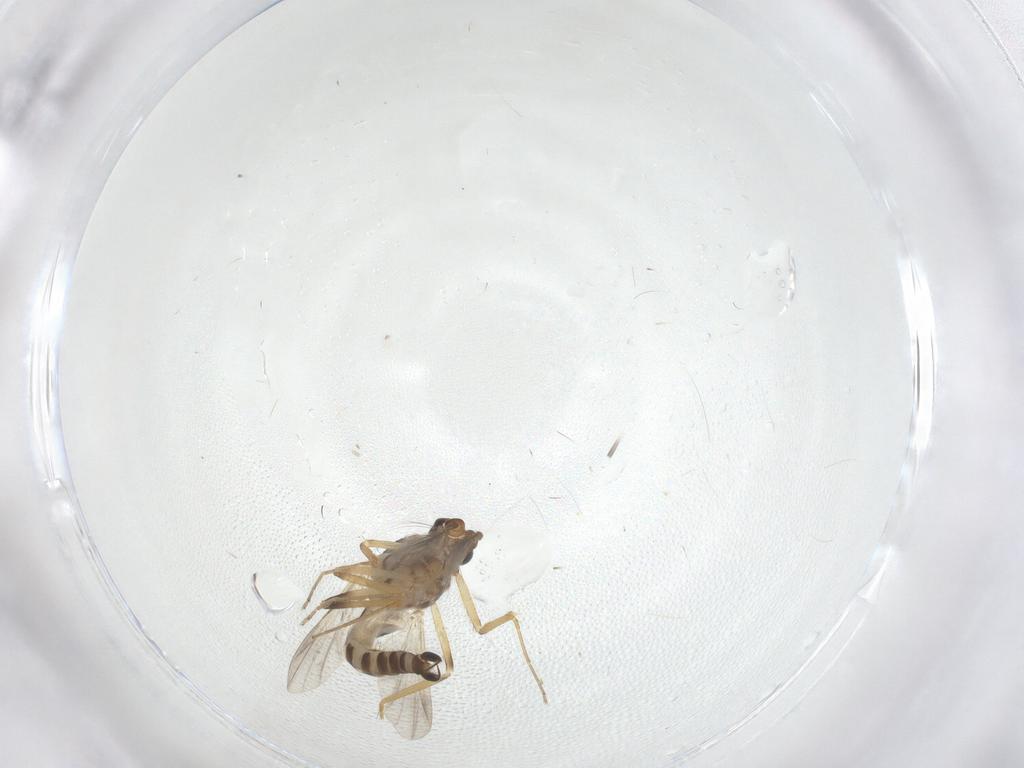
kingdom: Animalia
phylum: Arthropoda
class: Insecta
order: Diptera
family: Ceratopogonidae
